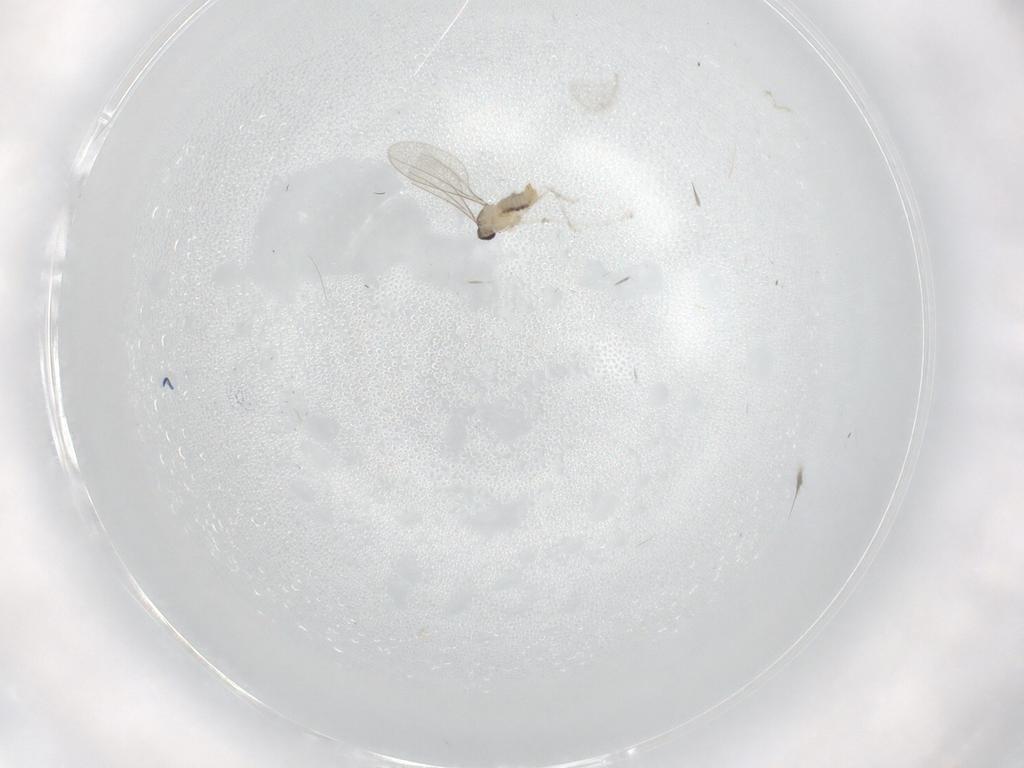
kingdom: Animalia
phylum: Arthropoda
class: Insecta
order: Diptera
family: Keroplatidae
